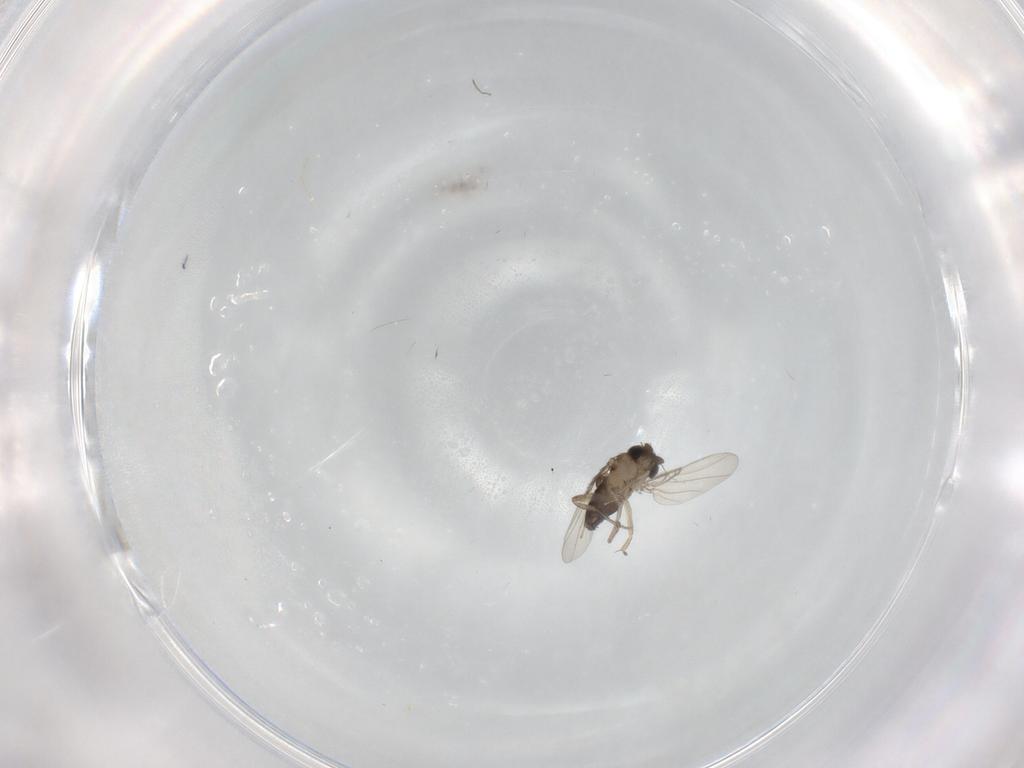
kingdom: Animalia
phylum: Arthropoda
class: Insecta
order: Diptera
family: Phoridae
